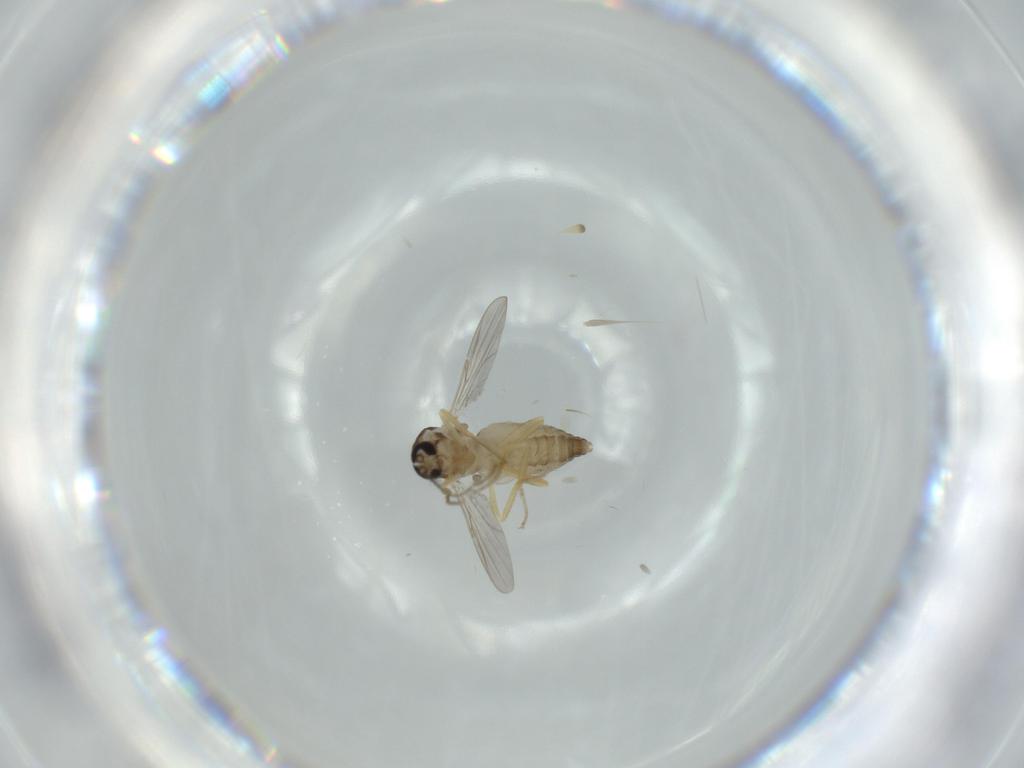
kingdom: Animalia
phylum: Arthropoda
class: Insecta
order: Diptera
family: Ceratopogonidae
